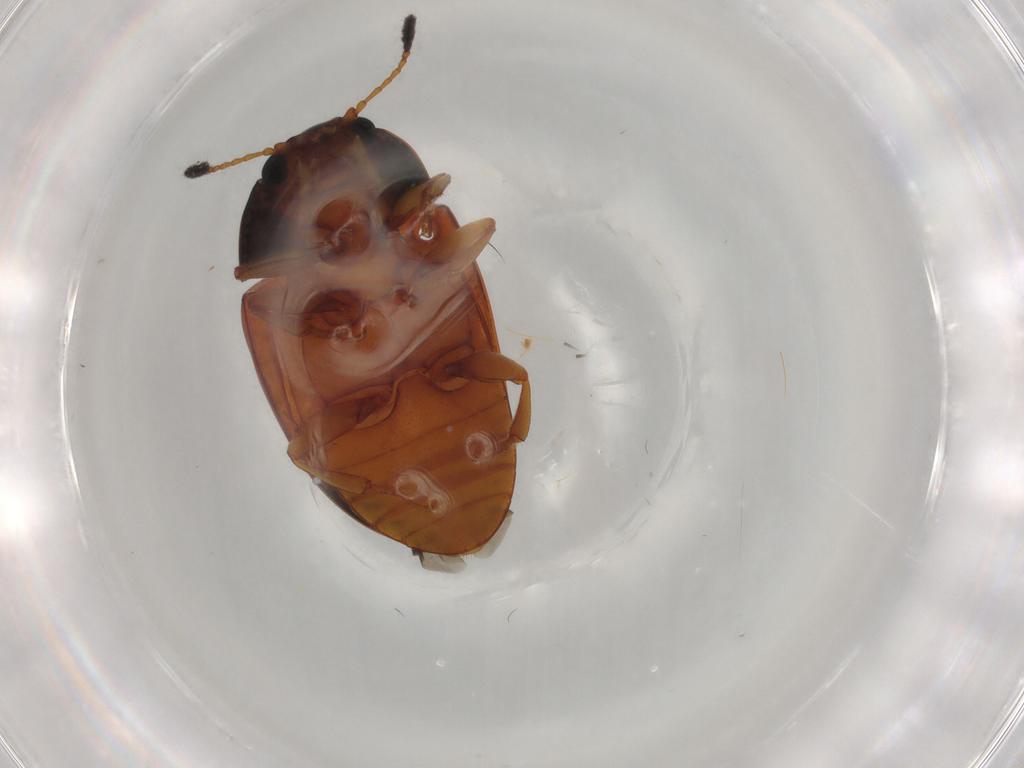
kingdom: Animalia
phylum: Arthropoda
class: Insecta
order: Coleoptera
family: Erotylidae
